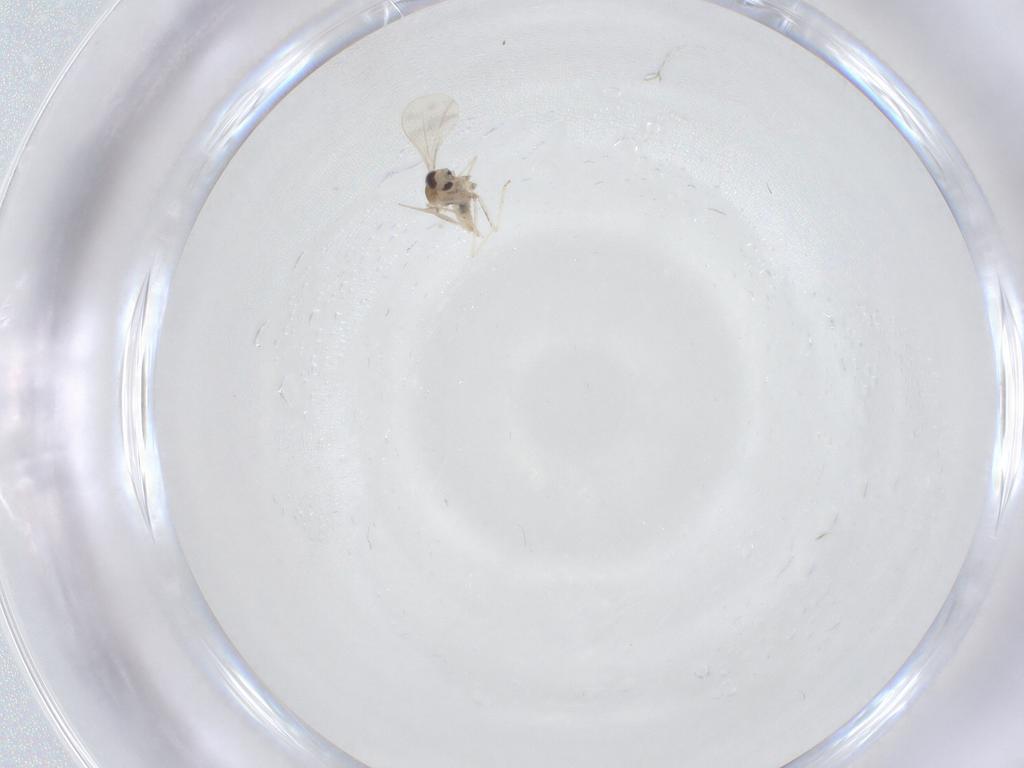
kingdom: Animalia
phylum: Arthropoda
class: Insecta
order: Diptera
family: Cecidomyiidae
